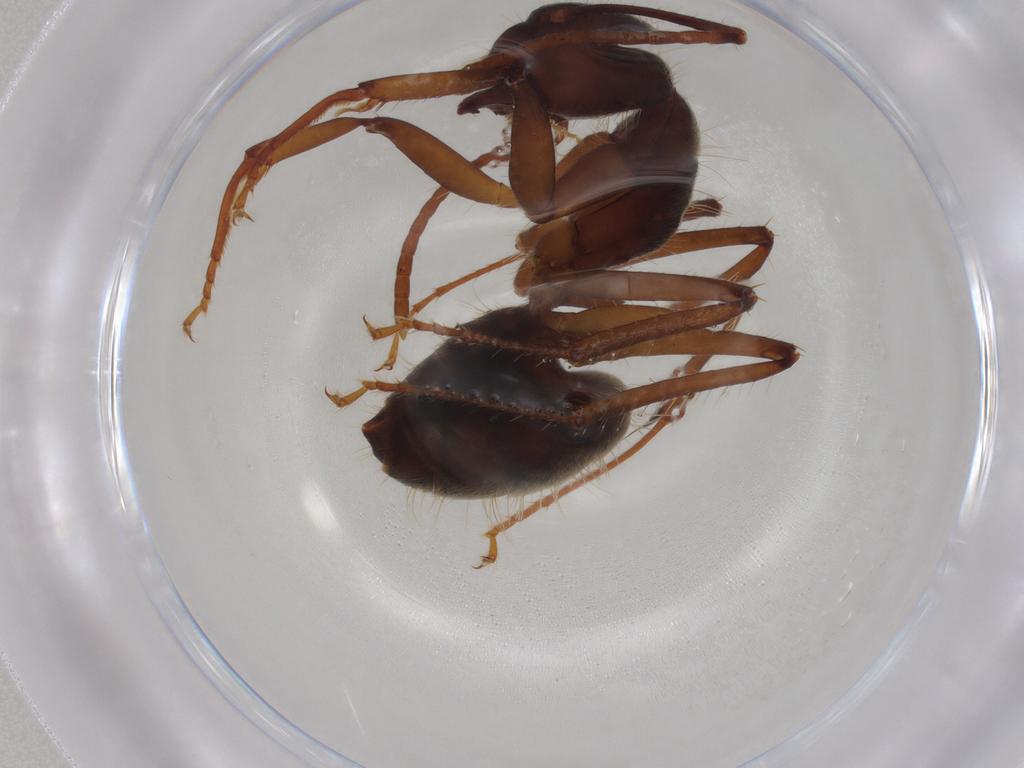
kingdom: Animalia
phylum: Arthropoda
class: Insecta
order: Hymenoptera
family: Formicidae
